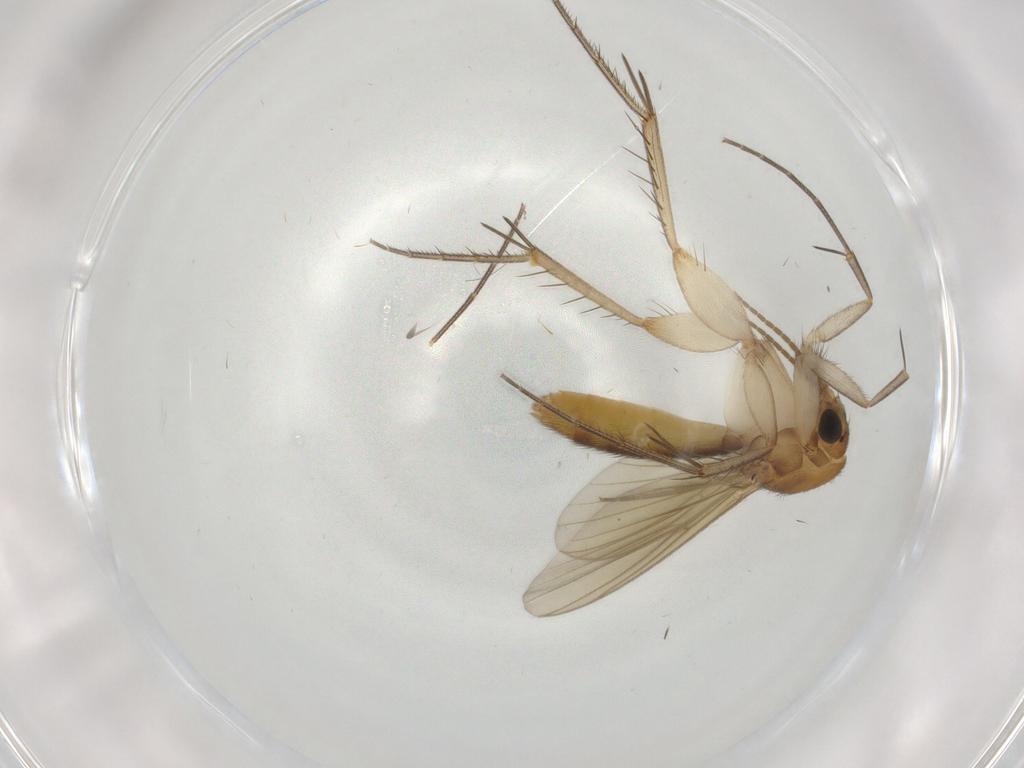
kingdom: Animalia
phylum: Arthropoda
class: Insecta
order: Diptera
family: Mycetophilidae
